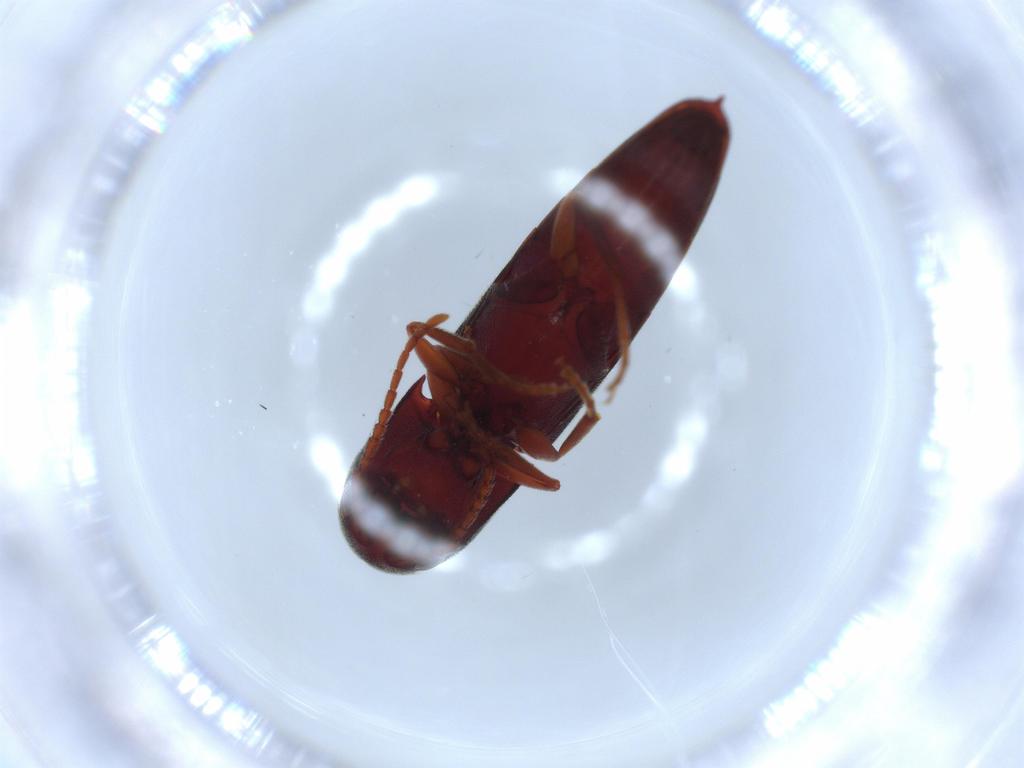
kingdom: Animalia
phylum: Arthropoda
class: Insecta
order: Coleoptera
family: Eucnemidae
